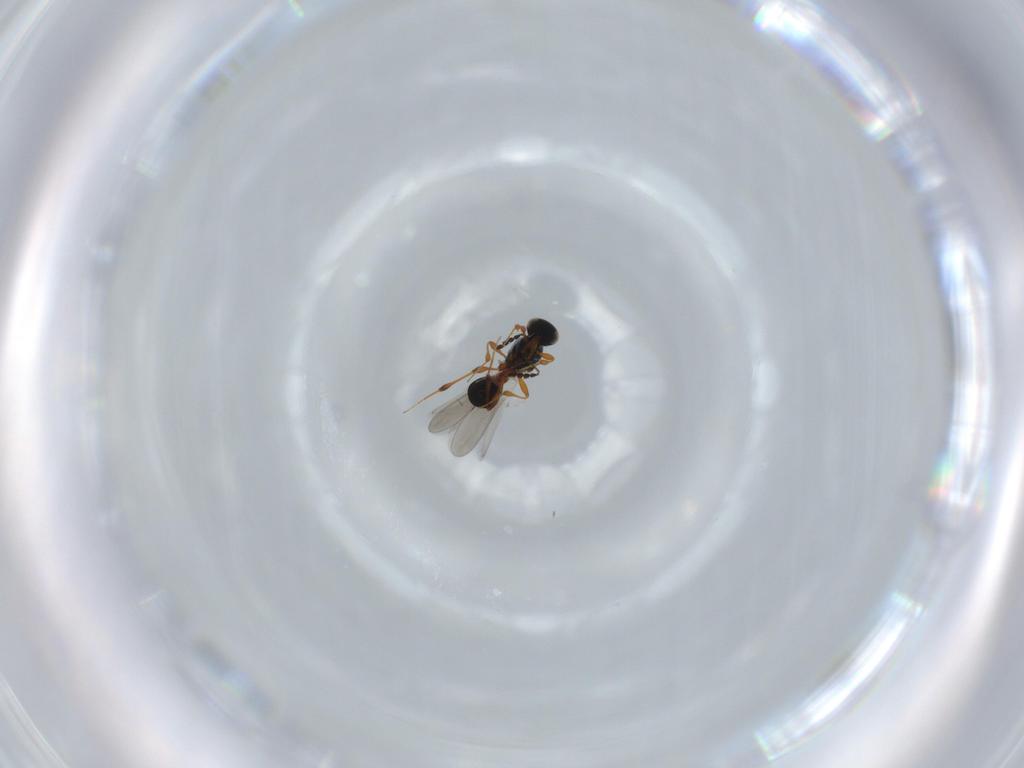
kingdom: Animalia
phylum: Arthropoda
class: Insecta
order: Hymenoptera
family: Platygastridae
